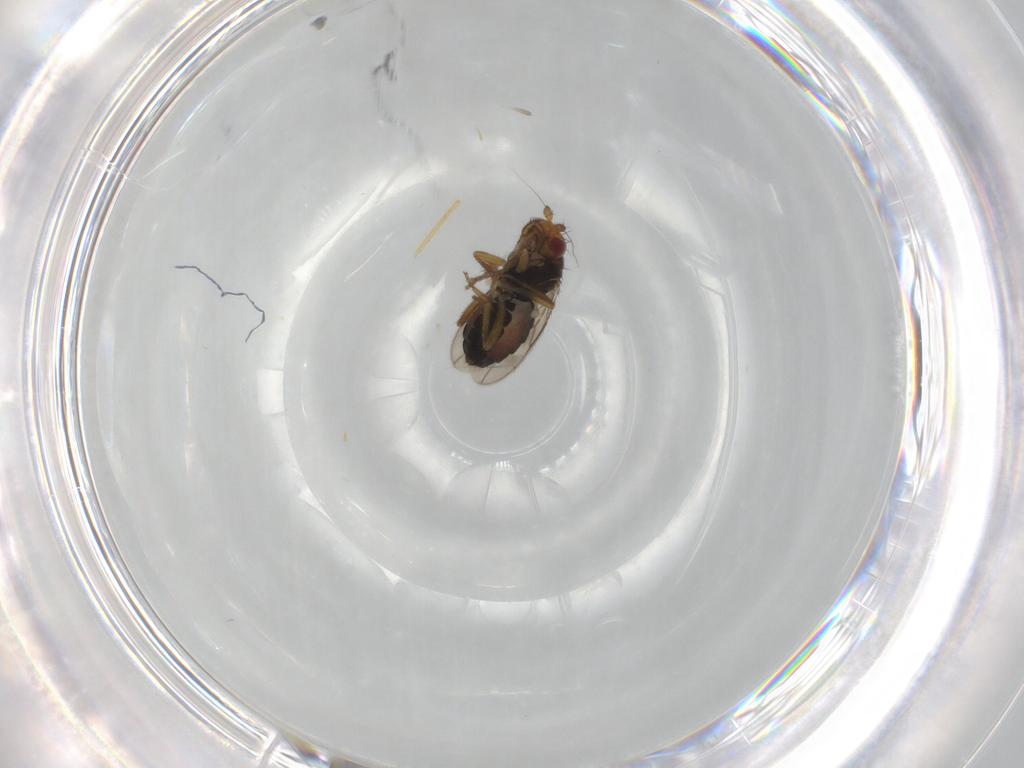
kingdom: Animalia
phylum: Arthropoda
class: Insecta
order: Diptera
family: Sphaeroceridae
